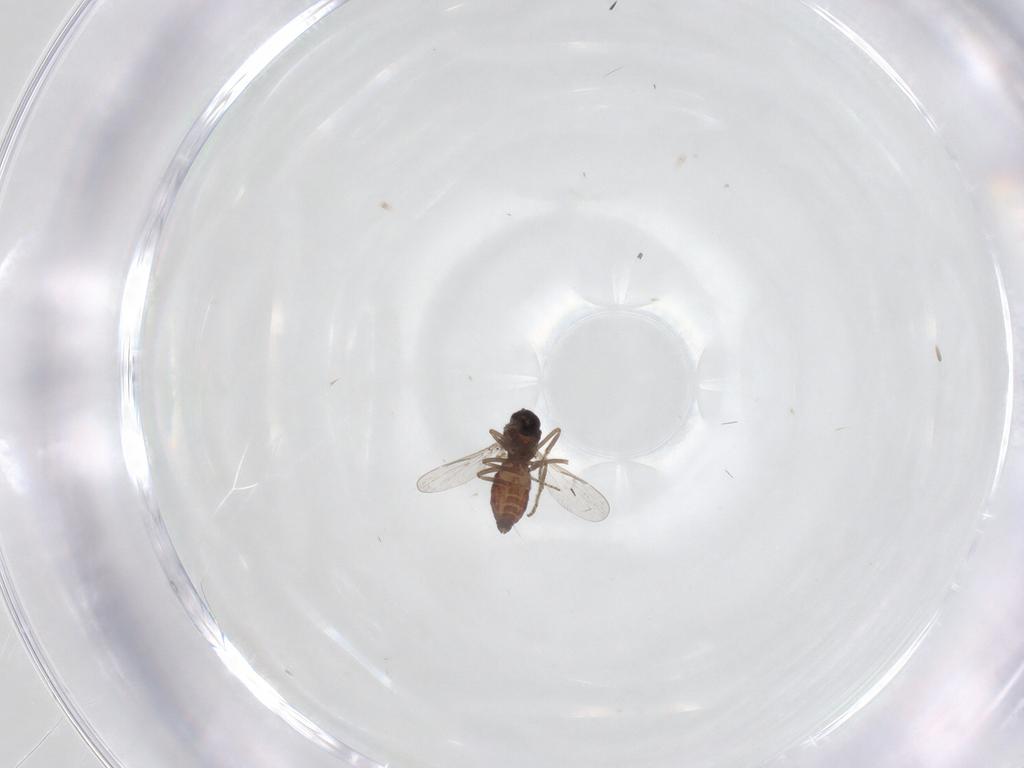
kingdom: Animalia
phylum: Arthropoda
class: Insecta
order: Diptera
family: Ceratopogonidae
